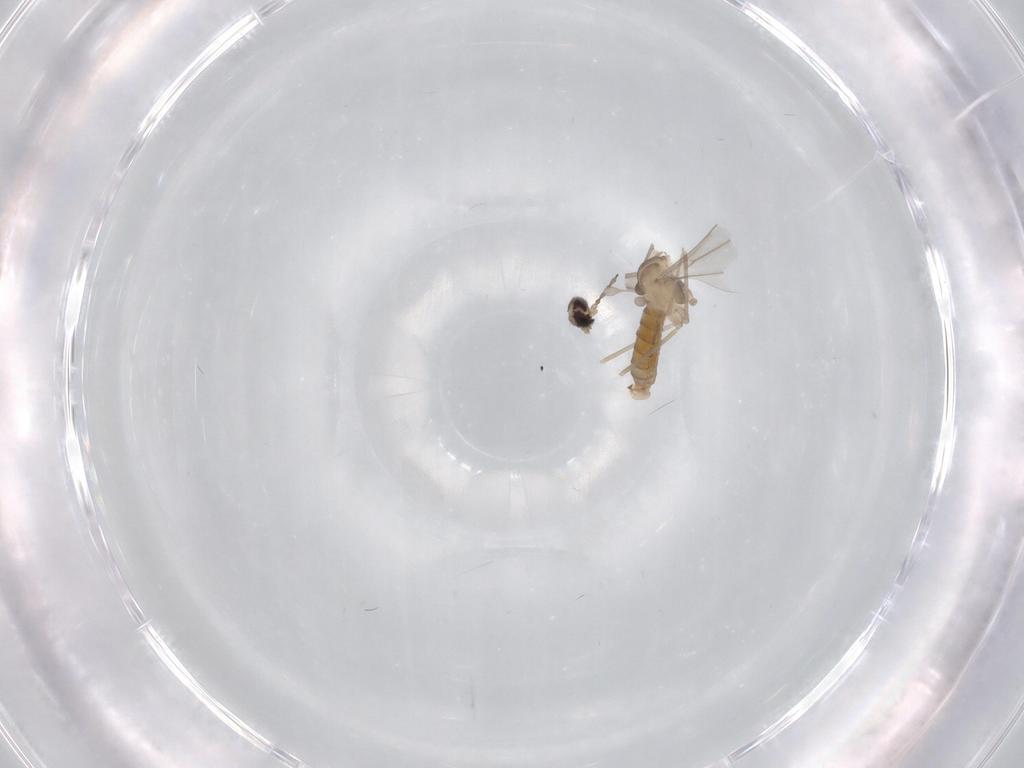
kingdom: Animalia
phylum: Arthropoda
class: Insecta
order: Diptera
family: Cecidomyiidae
